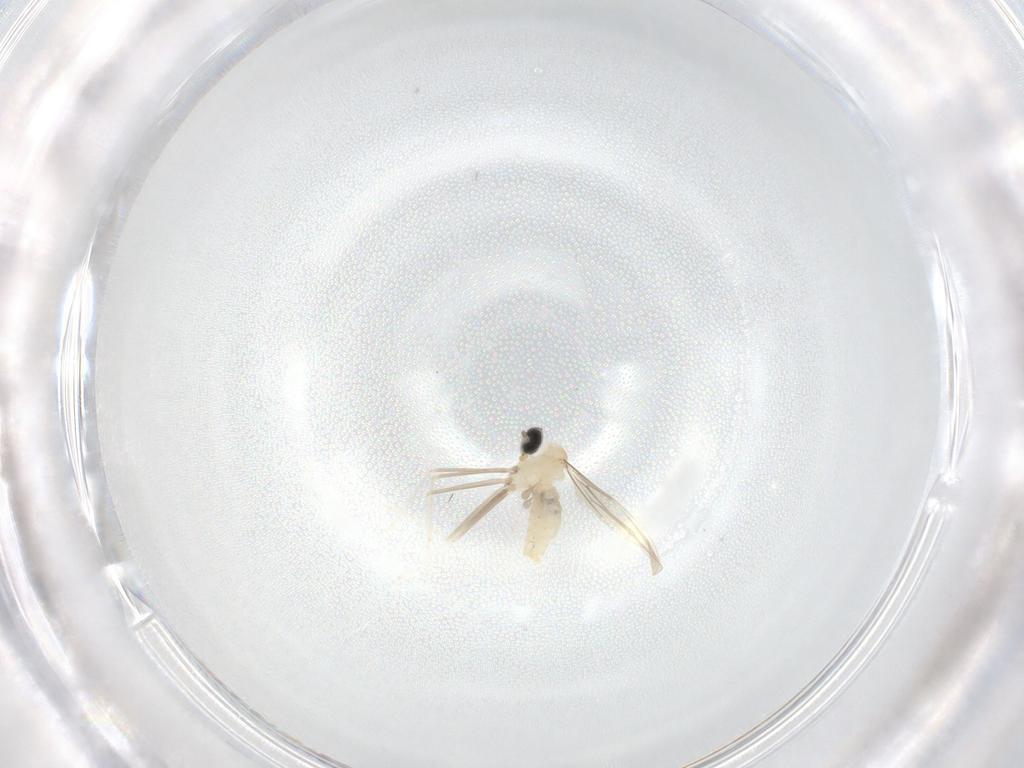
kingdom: Animalia
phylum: Arthropoda
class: Insecta
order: Diptera
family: Cecidomyiidae
